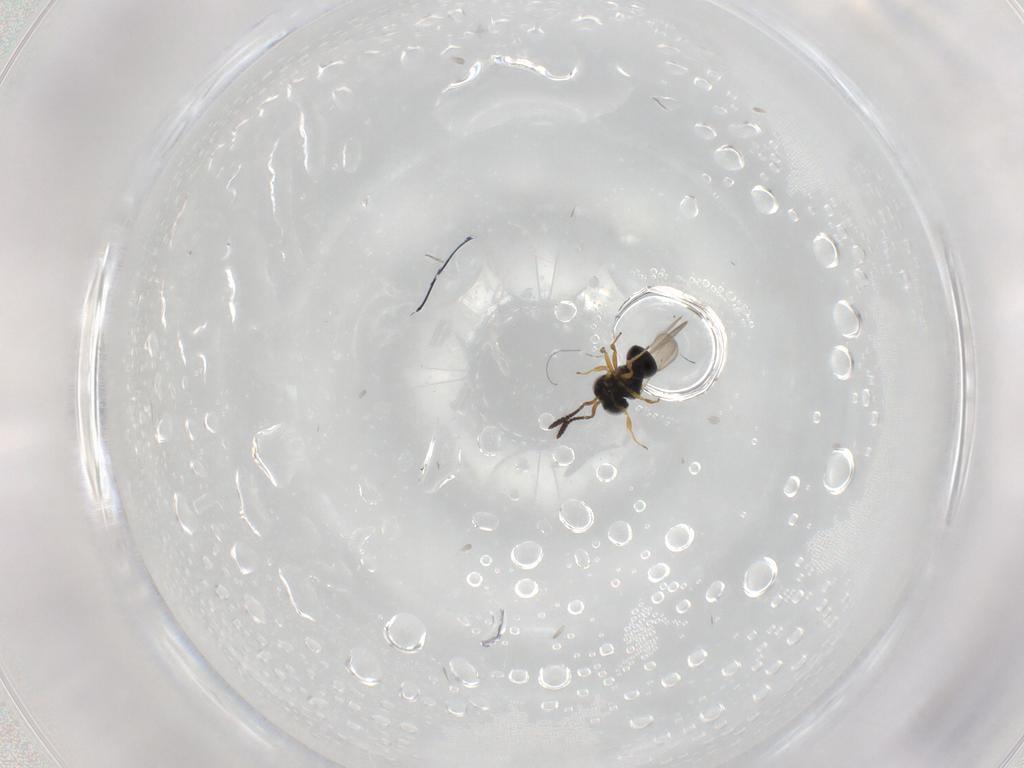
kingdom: Animalia
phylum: Arthropoda
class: Insecta
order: Hymenoptera
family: Scelionidae
